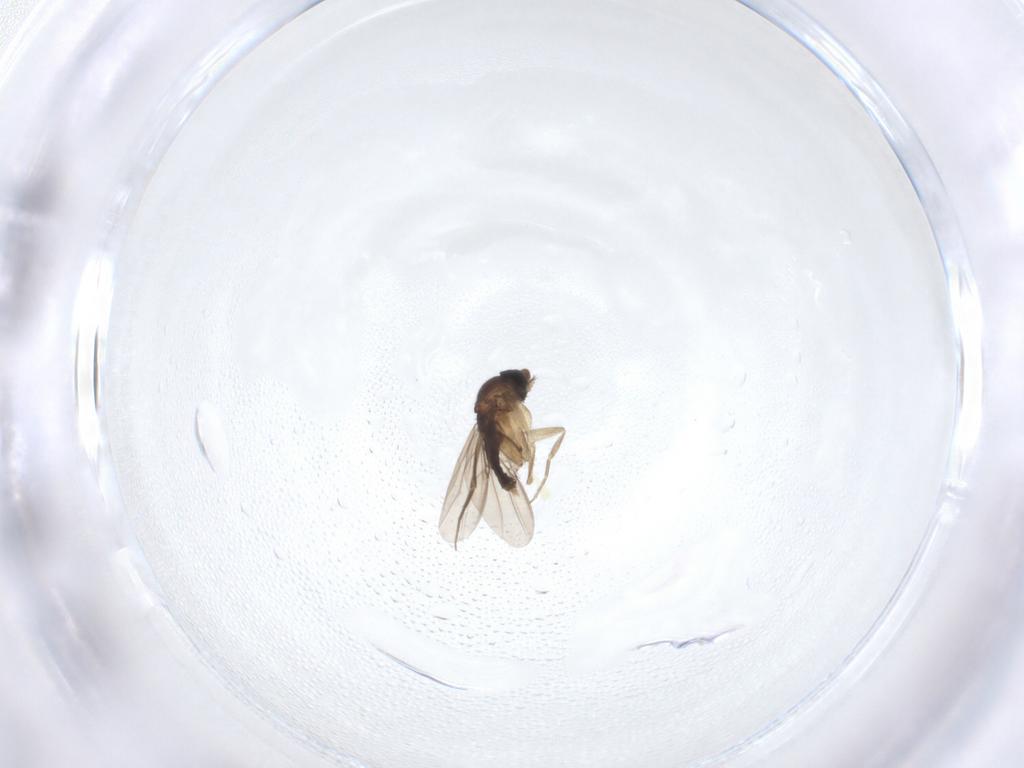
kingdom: Animalia
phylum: Arthropoda
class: Insecta
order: Diptera
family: Phoridae
